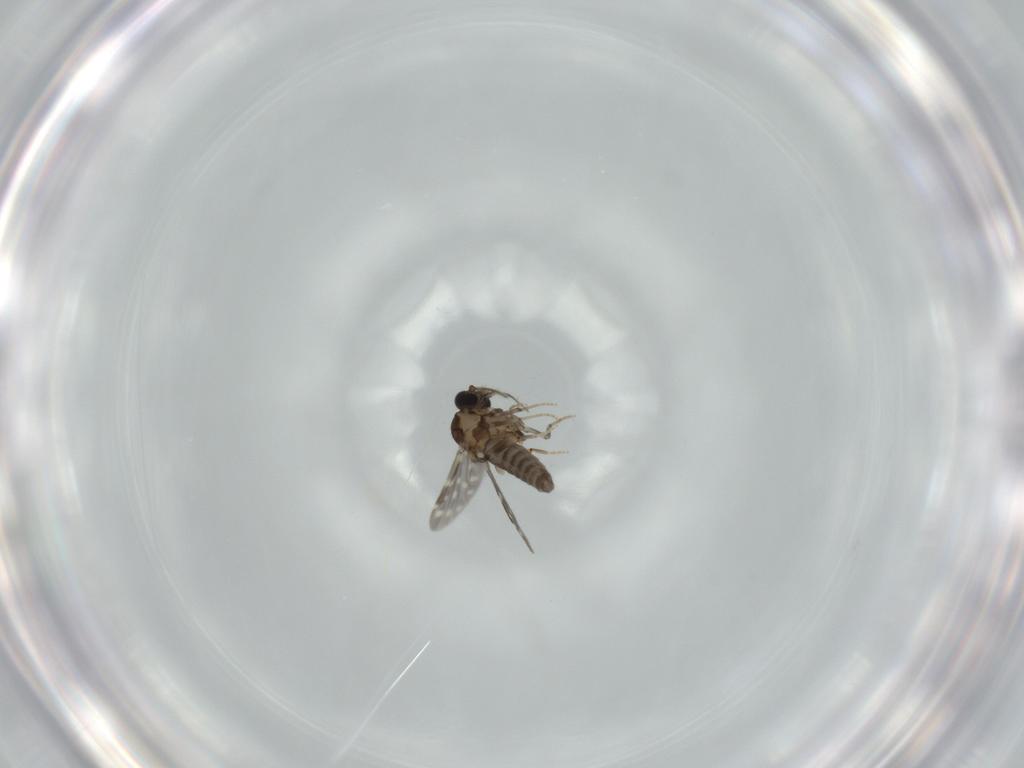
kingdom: Animalia
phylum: Arthropoda
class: Insecta
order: Diptera
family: Ceratopogonidae
